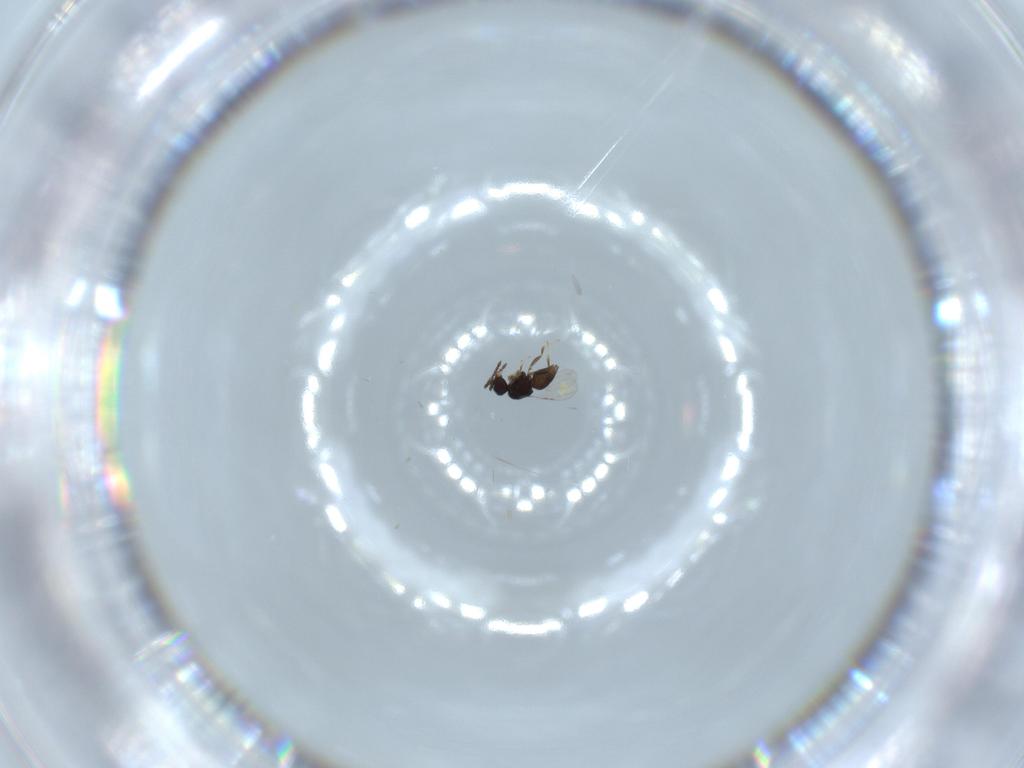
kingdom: Animalia
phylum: Arthropoda
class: Insecta
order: Hymenoptera
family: Ceraphronidae
